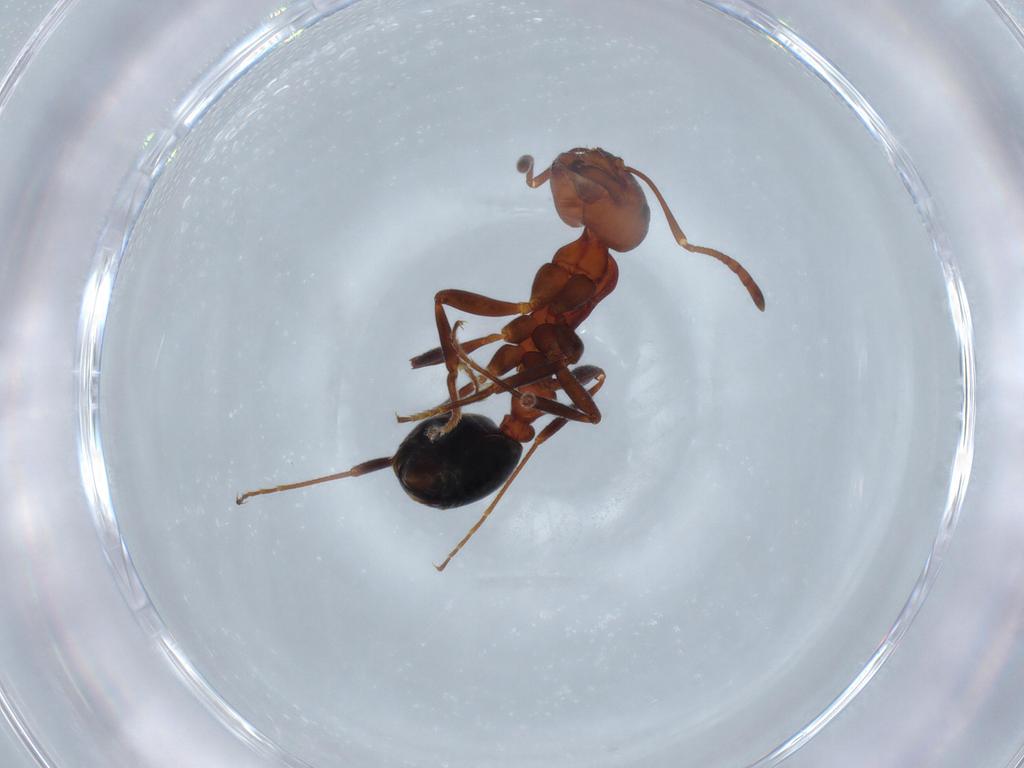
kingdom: Animalia
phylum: Arthropoda
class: Insecta
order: Hymenoptera
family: Formicidae
